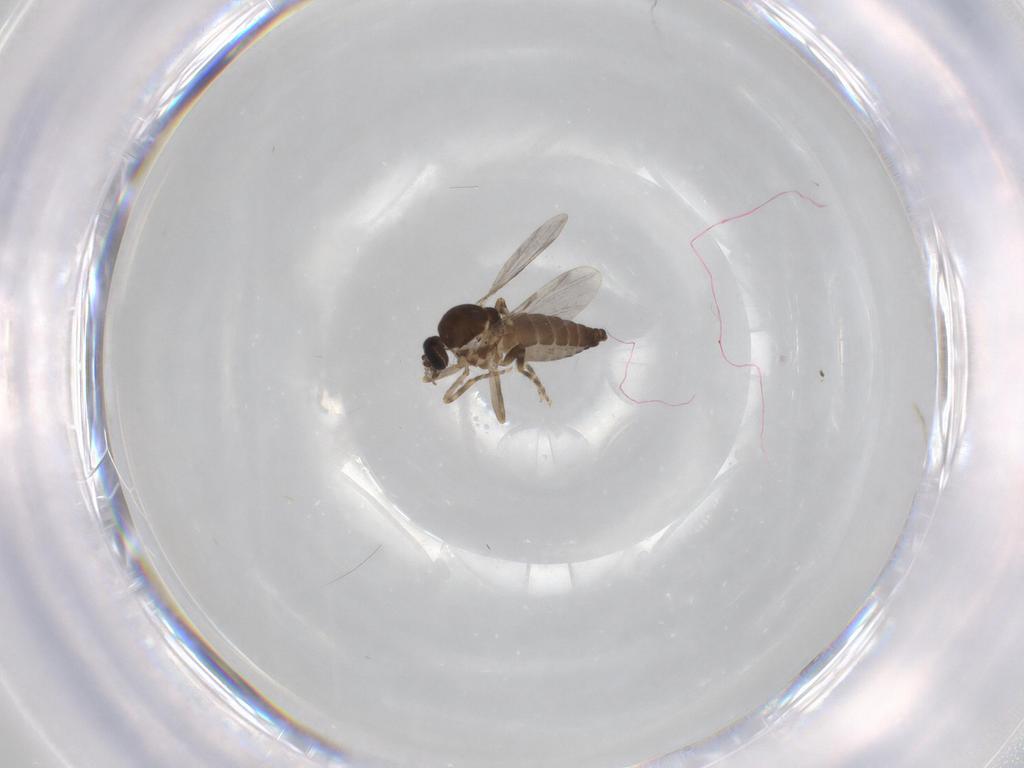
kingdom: Animalia
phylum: Arthropoda
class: Insecta
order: Diptera
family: Ceratopogonidae
